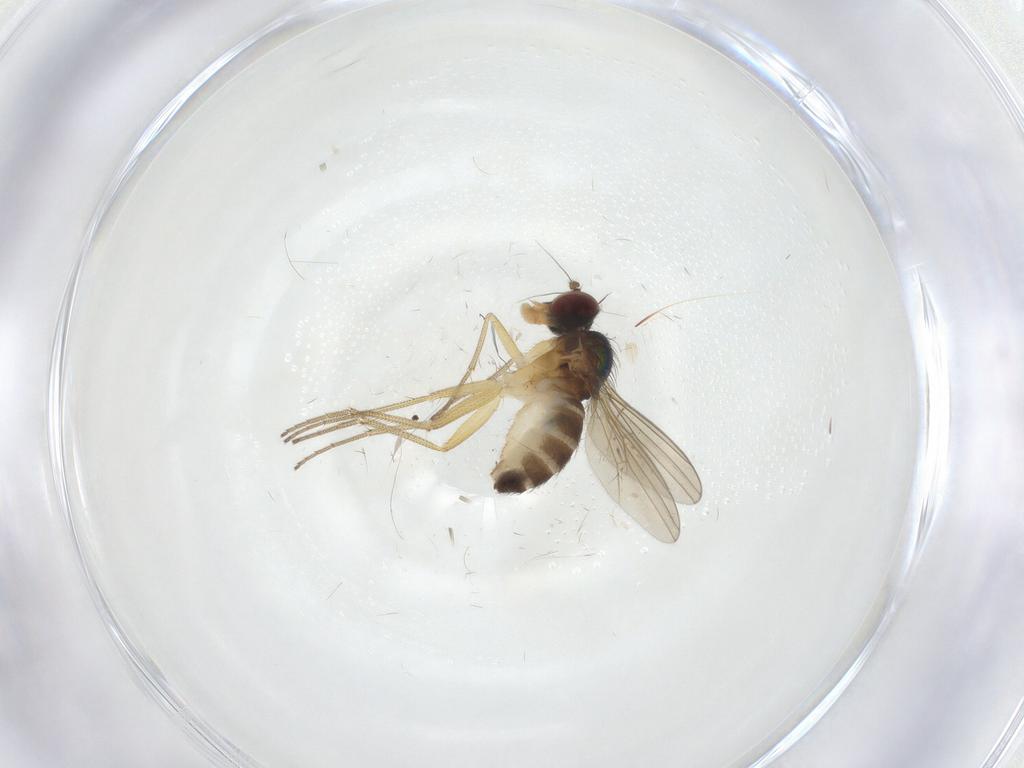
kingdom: Animalia
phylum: Arthropoda
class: Insecta
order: Diptera
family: Dolichopodidae
